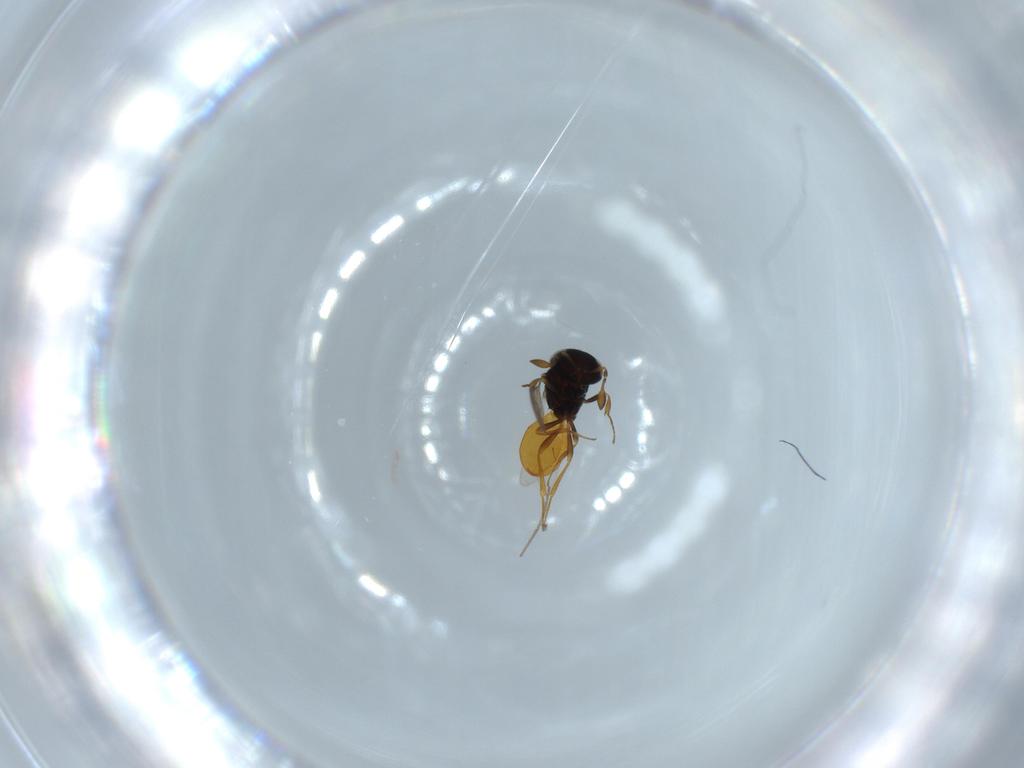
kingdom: Animalia
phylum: Arthropoda
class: Insecta
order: Hymenoptera
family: Scelionidae
